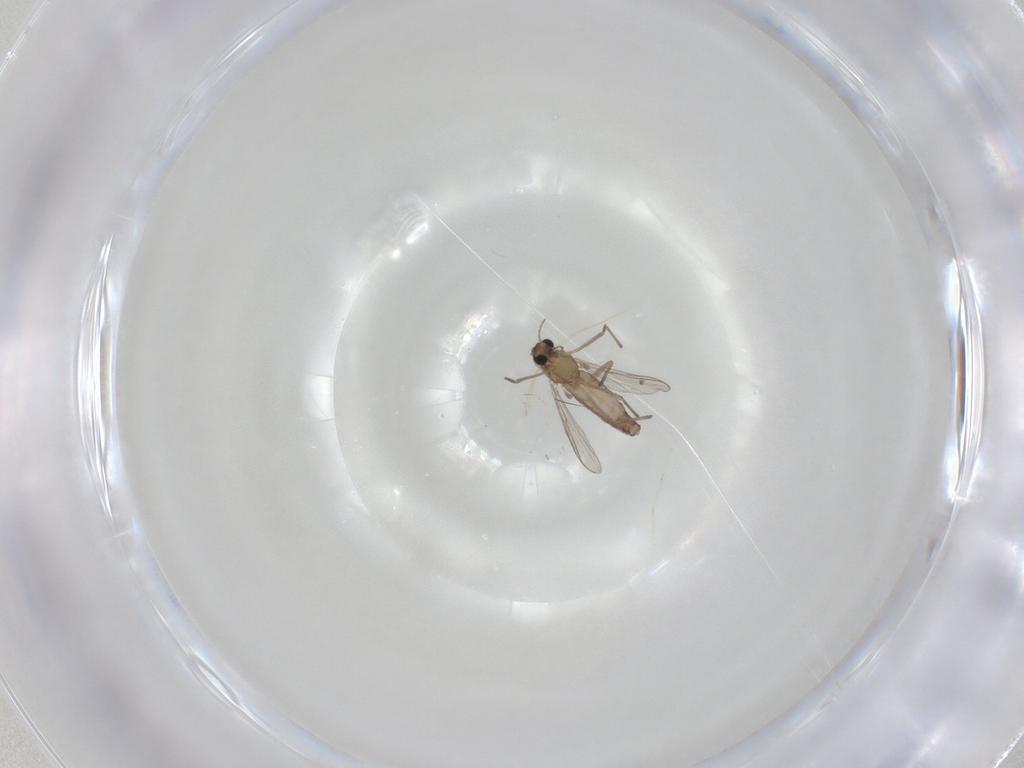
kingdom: Animalia
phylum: Arthropoda
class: Insecta
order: Diptera
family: Chironomidae
